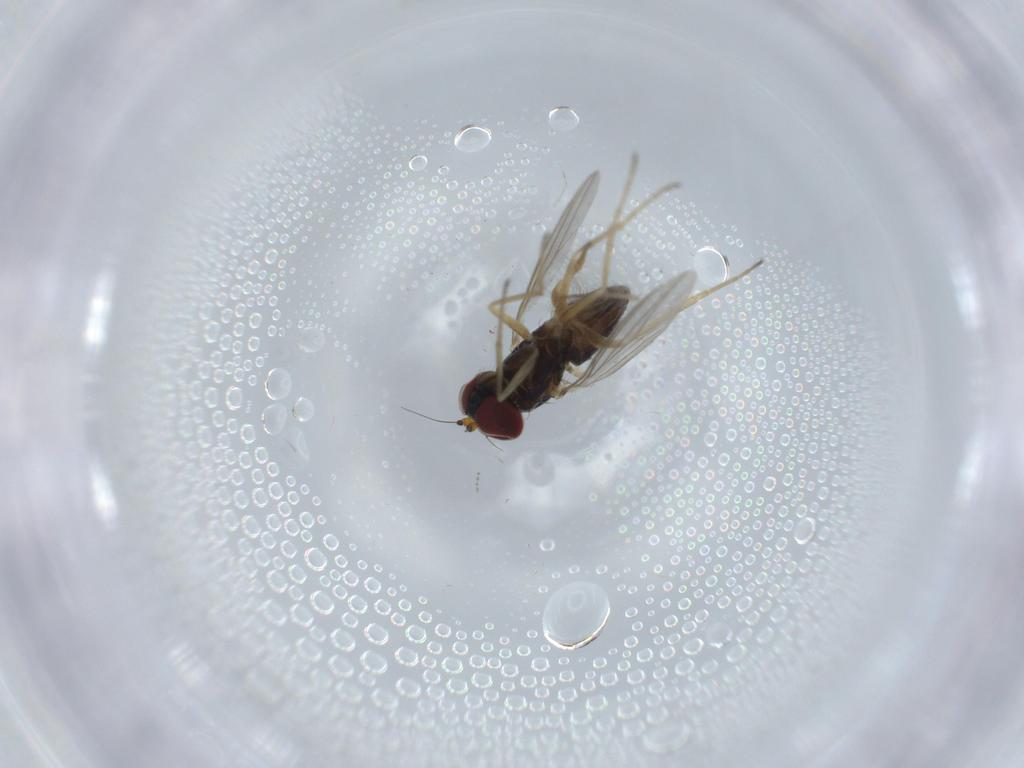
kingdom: Animalia
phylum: Arthropoda
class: Insecta
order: Diptera
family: Dolichopodidae
